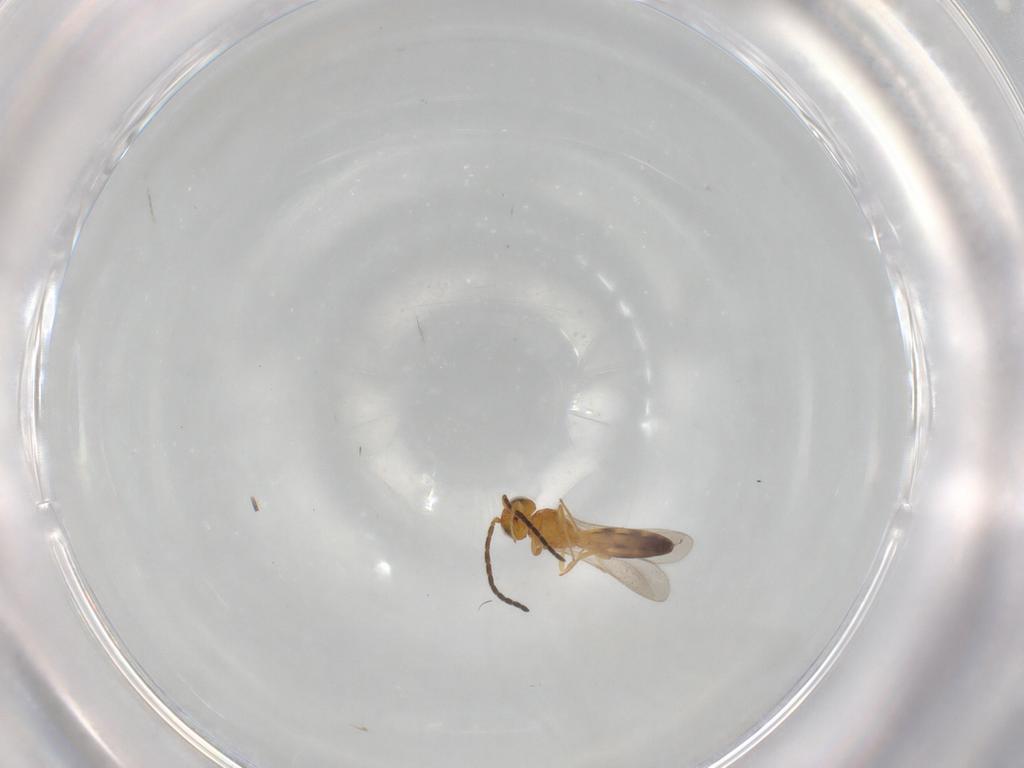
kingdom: Animalia
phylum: Arthropoda
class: Insecta
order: Hymenoptera
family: Scelionidae
